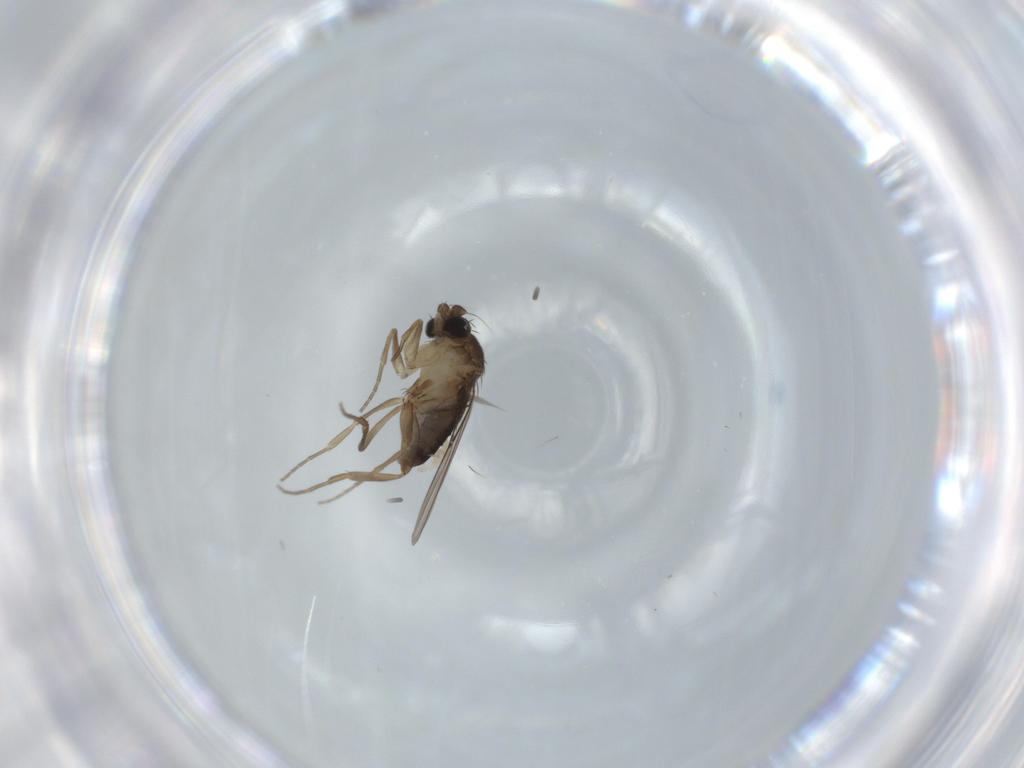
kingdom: Animalia
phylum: Arthropoda
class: Insecta
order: Diptera
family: Phoridae
